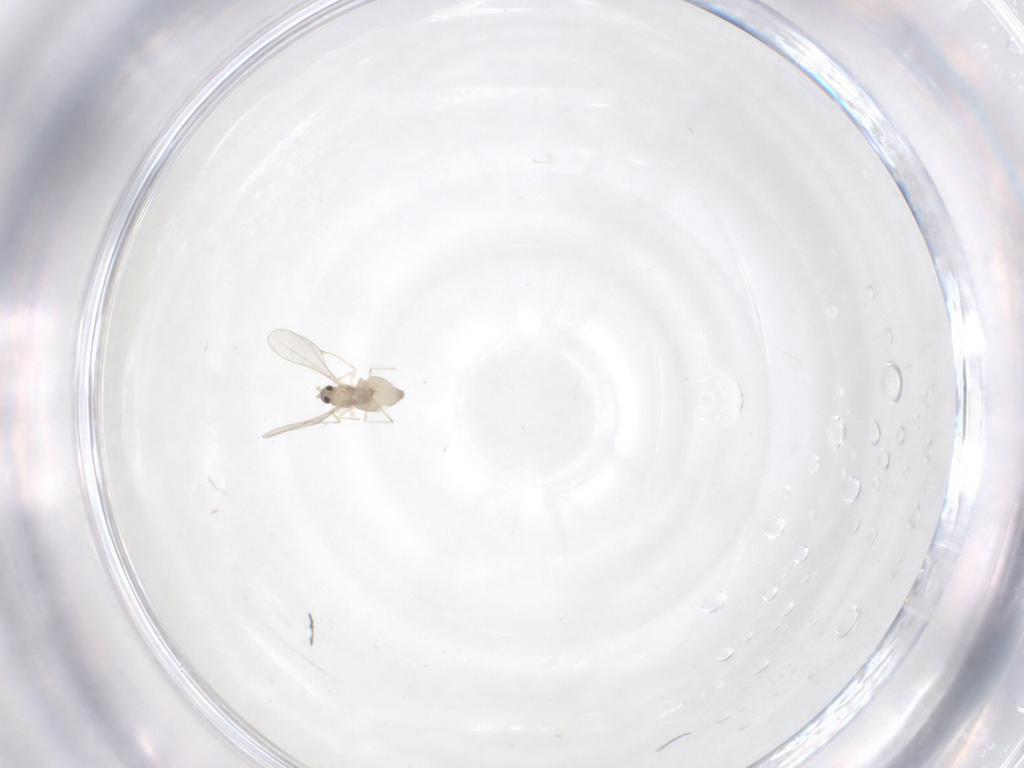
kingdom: Animalia
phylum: Arthropoda
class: Insecta
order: Diptera
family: Cecidomyiidae
